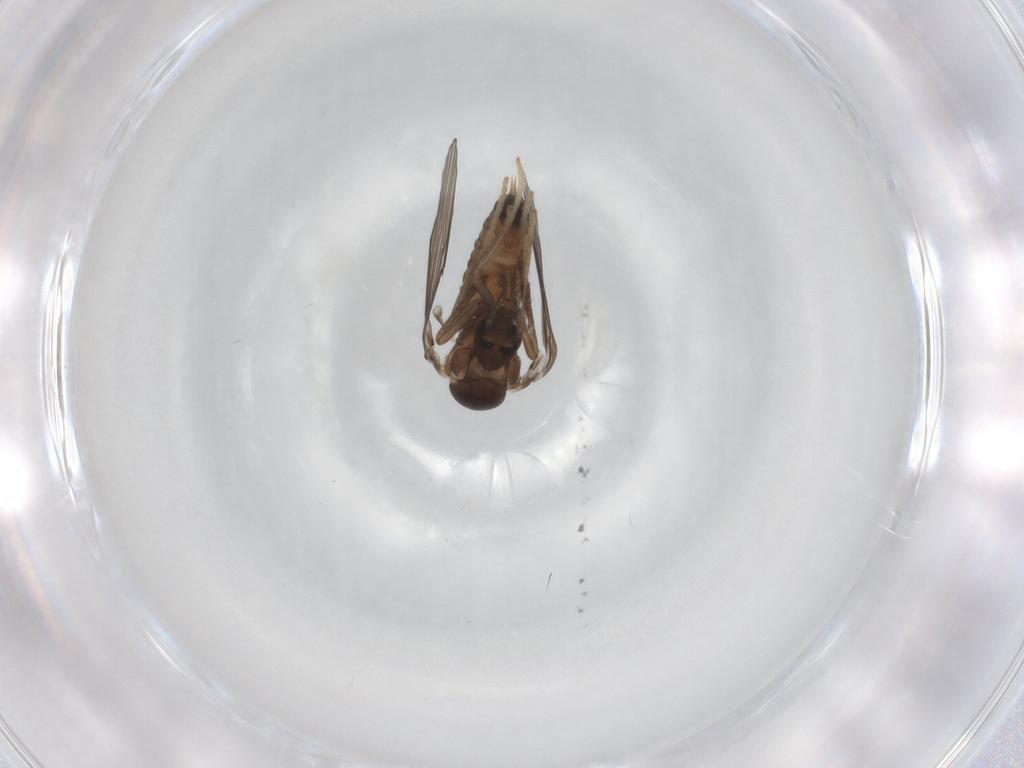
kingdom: Animalia
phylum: Arthropoda
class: Insecta
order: Diptera
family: Psychodidae
